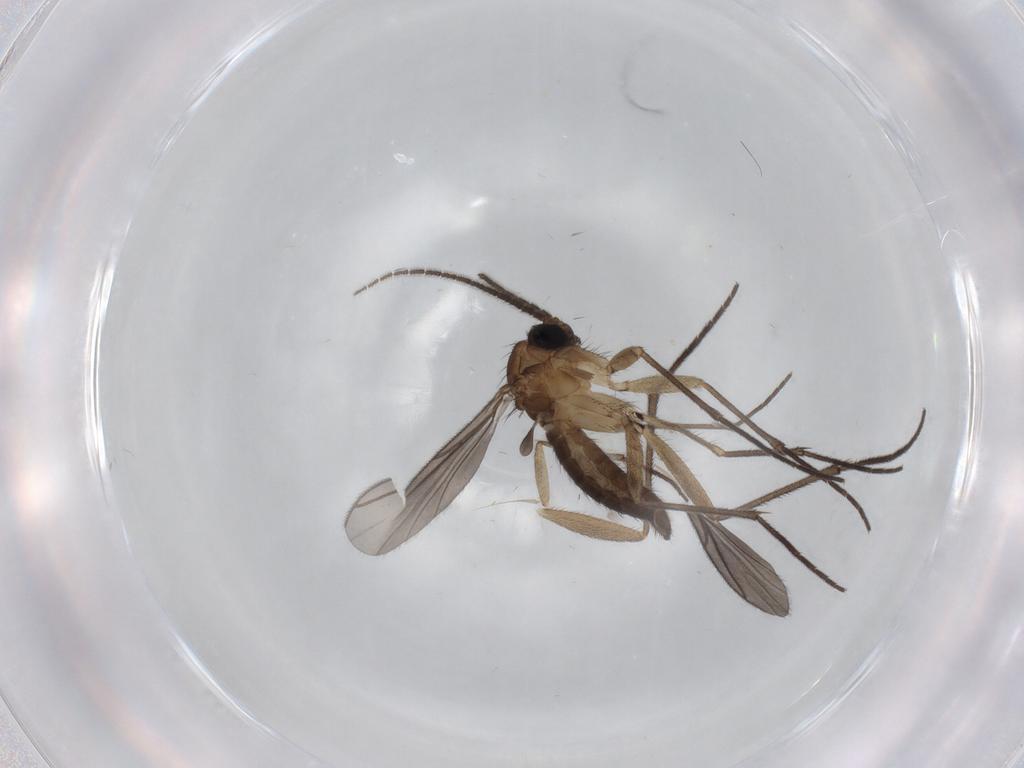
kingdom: Animalia
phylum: Arthropoda
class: Insecta
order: Diptera
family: Sciaridae
